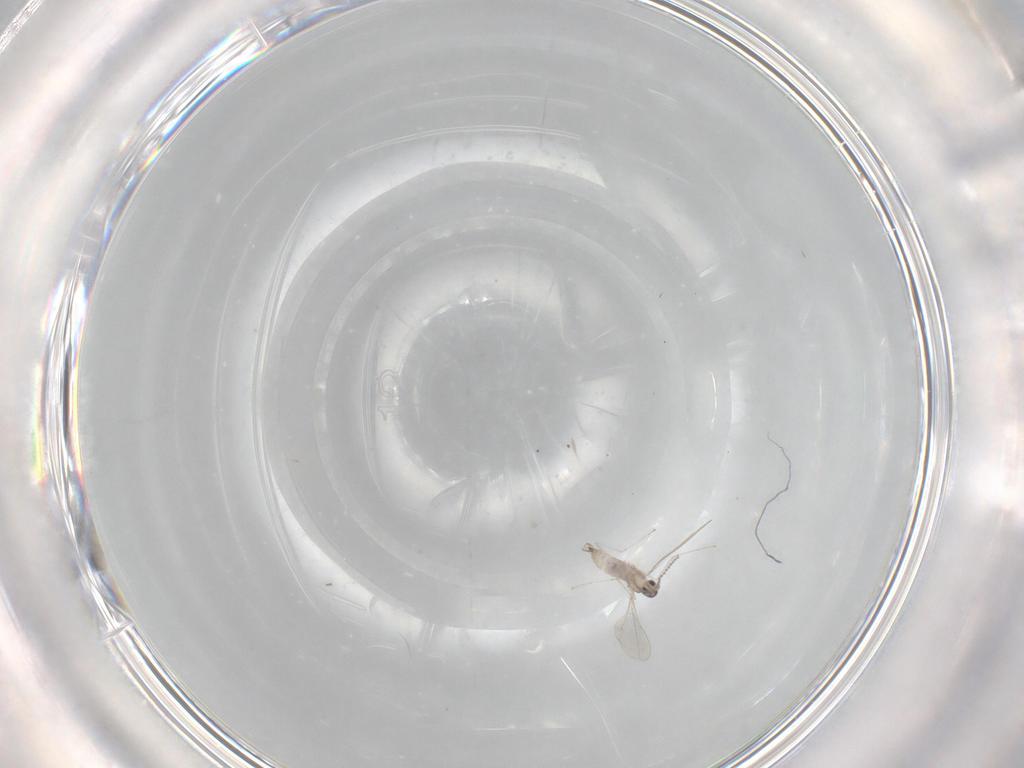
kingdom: Animalia
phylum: Arthropoda
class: Insecta
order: Diptera
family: Cecidomyiidae
